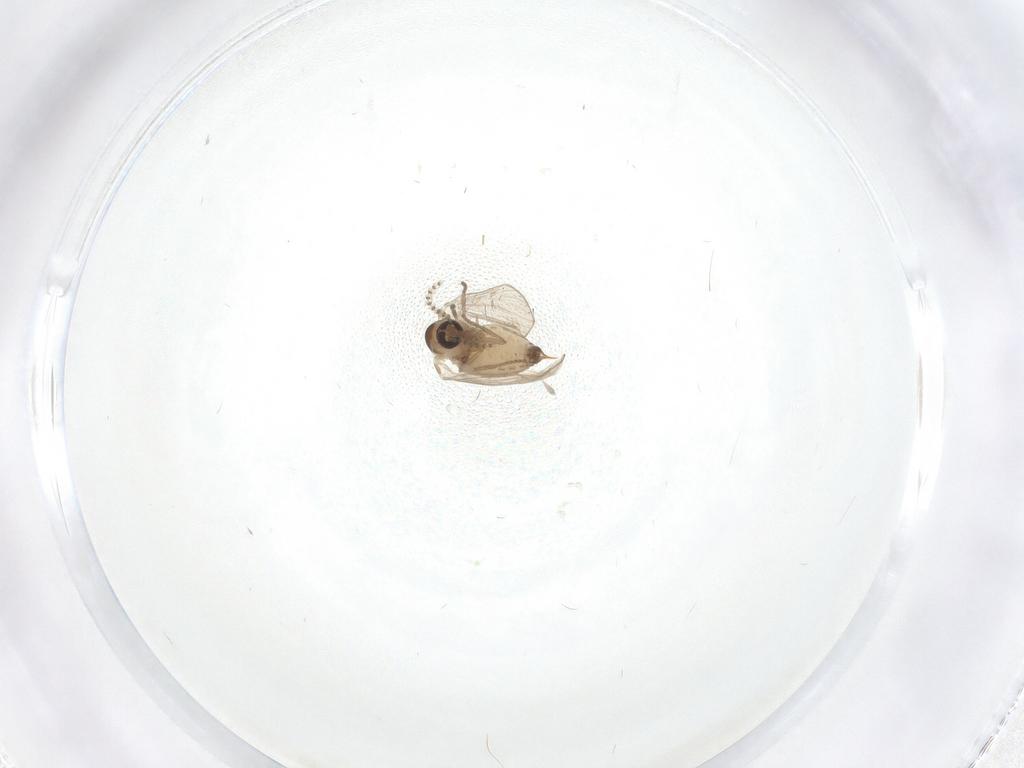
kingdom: Animalia
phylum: Arthropoda
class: Insecta
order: Diptera
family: Psychodidae
